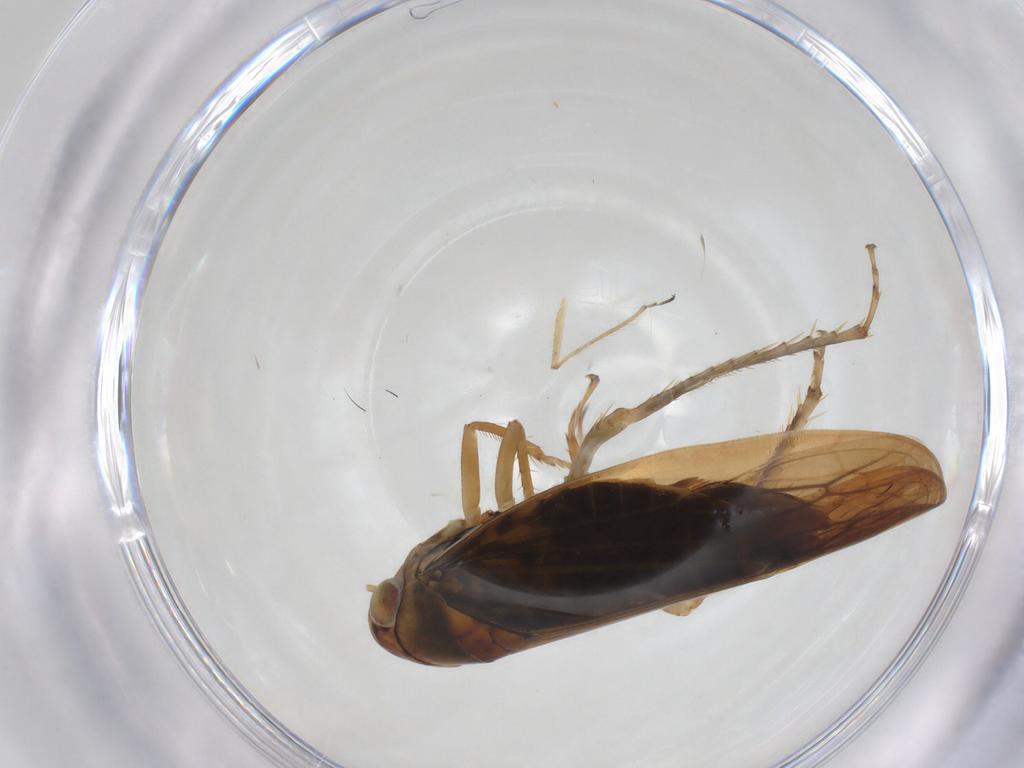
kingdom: Animalia
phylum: Arthropoda
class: Insecta
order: Hemiptera
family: Cicadellidae
